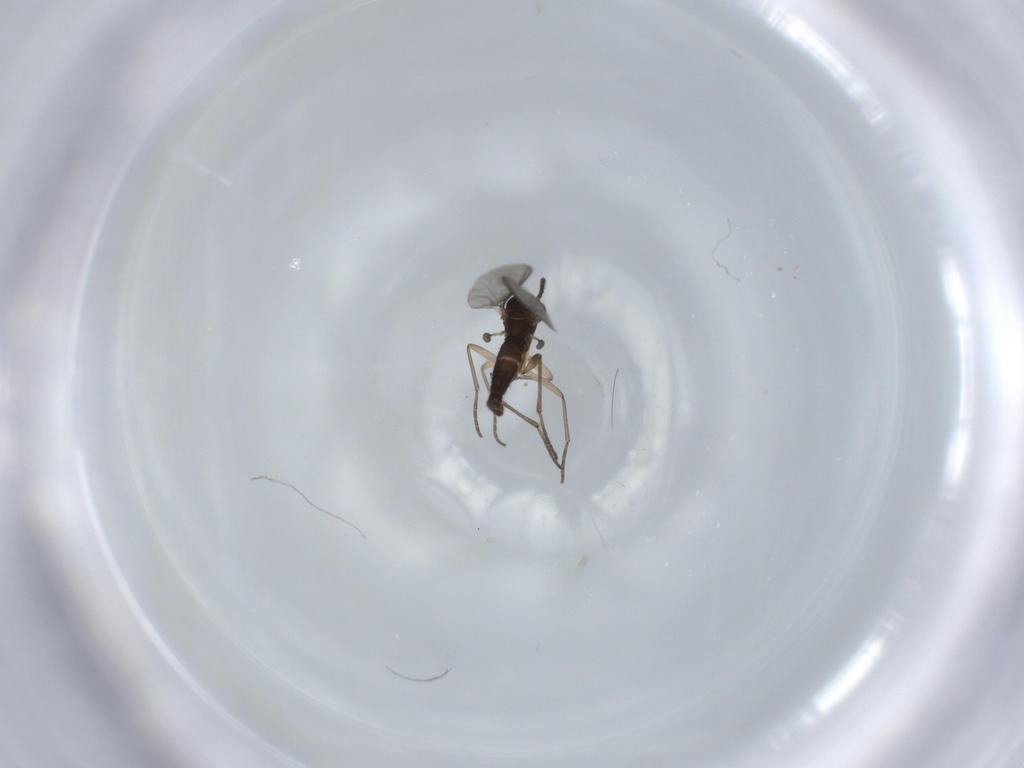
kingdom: Animalia
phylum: Arthropoda
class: Insecta
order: Diptera
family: Sciaridae
